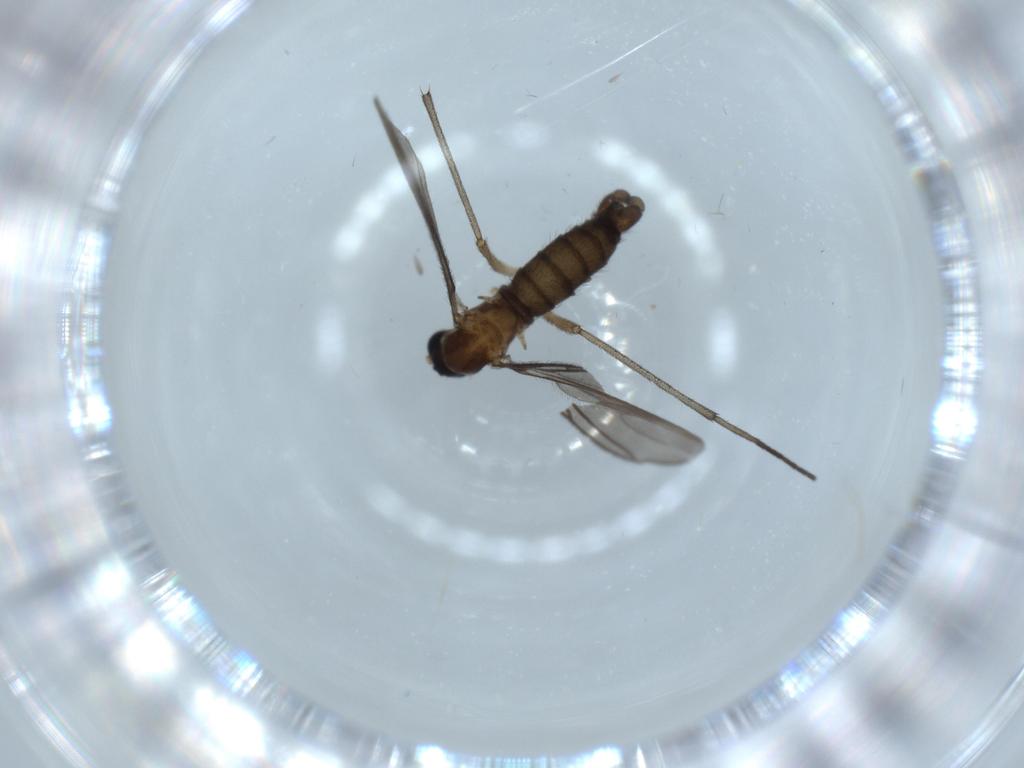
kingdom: Animalia
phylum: Arthropoda
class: Insecta
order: Diptera
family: Sciaridae
